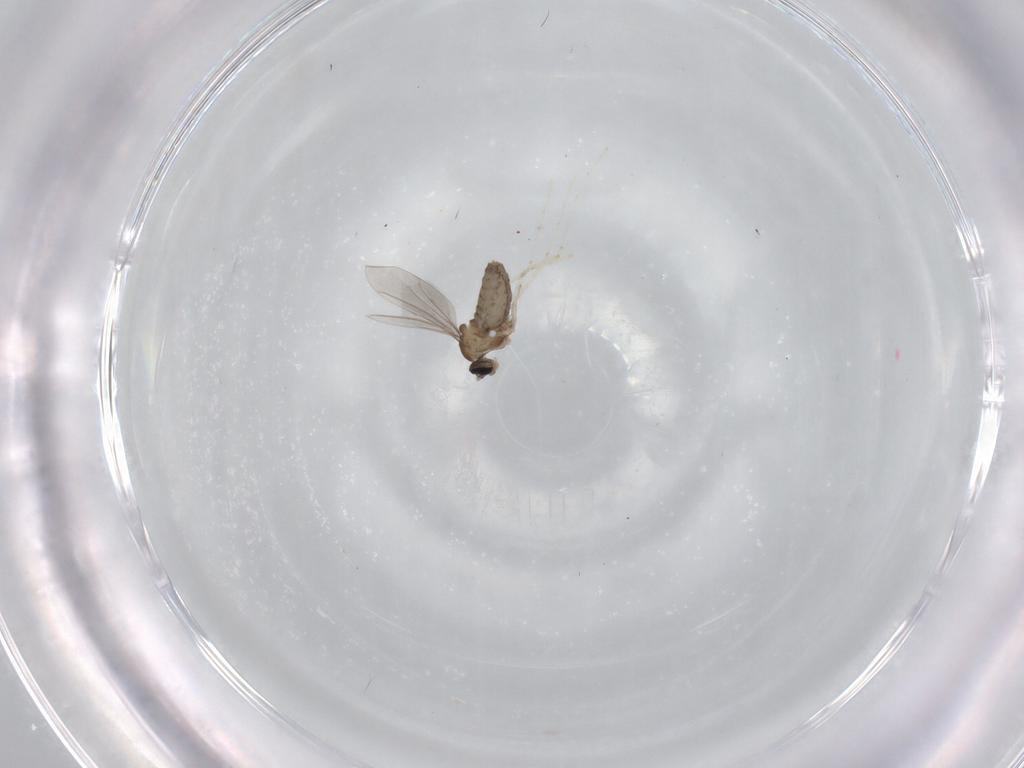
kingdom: Animalia
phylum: Arthropoda
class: Insecta
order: Diptera
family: Cecidomyiidae
